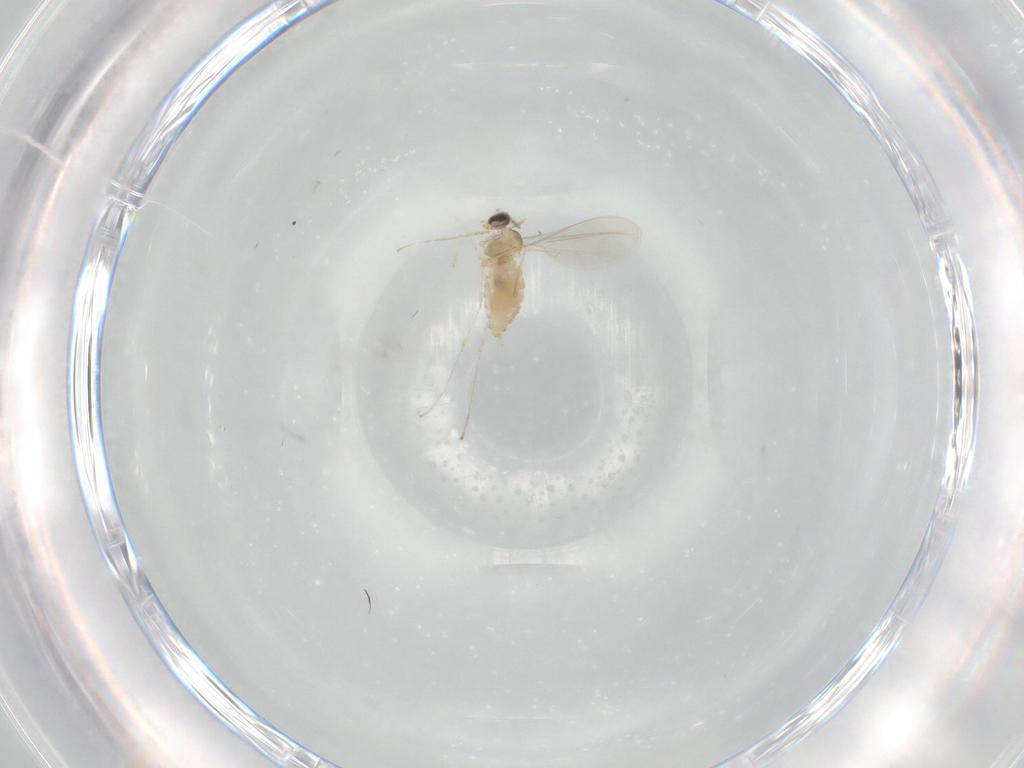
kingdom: Animalia
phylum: Arthropoda
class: Insecta
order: Diptera
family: Cecidomyiidae
